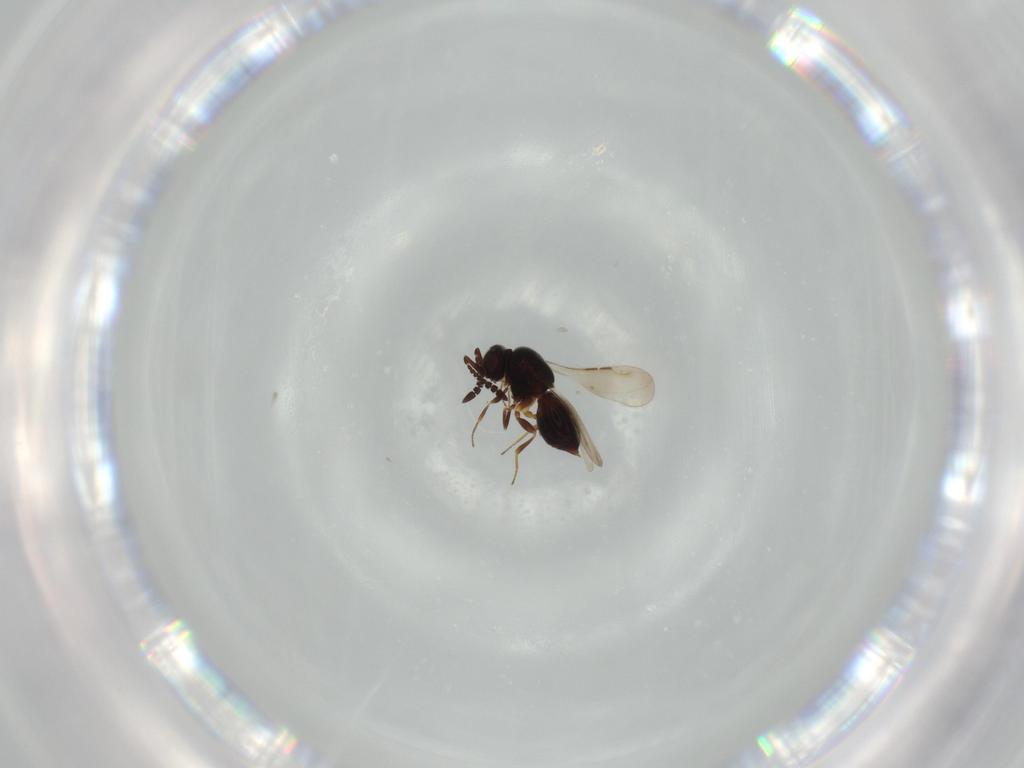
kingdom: Animalia
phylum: Arthropoda
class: Insecta
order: Hymenoptera
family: Ceraphronidae
